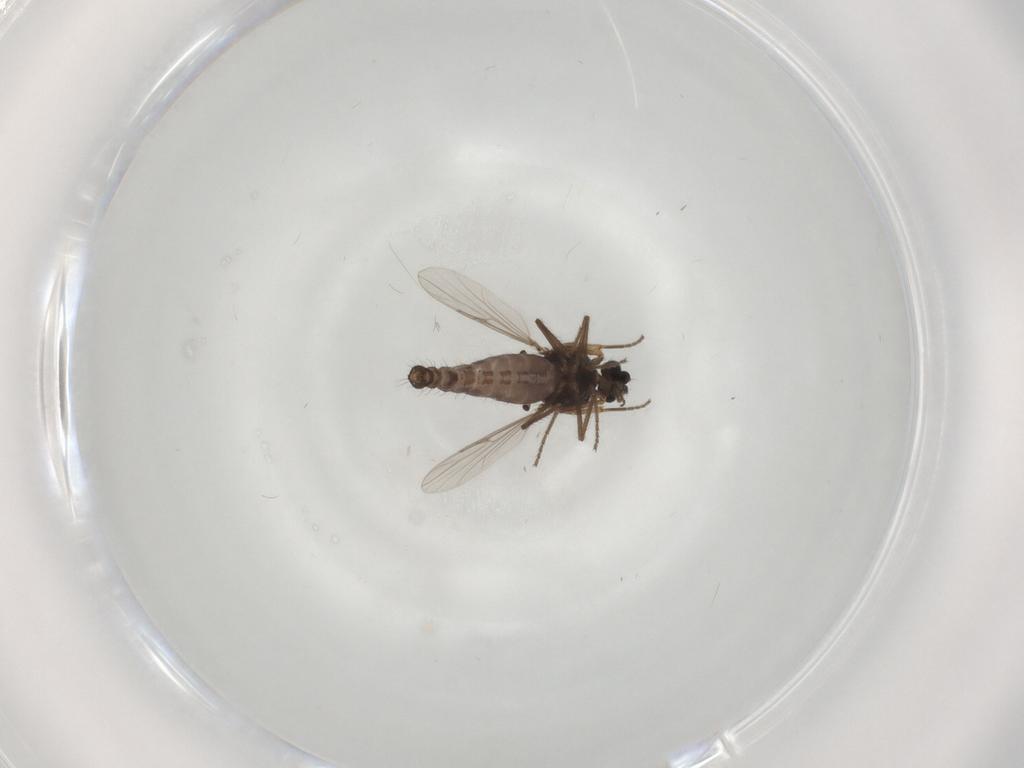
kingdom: Animalia
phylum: Arthropoda
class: Insecta
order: Diptera
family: Ceratopogonidae
